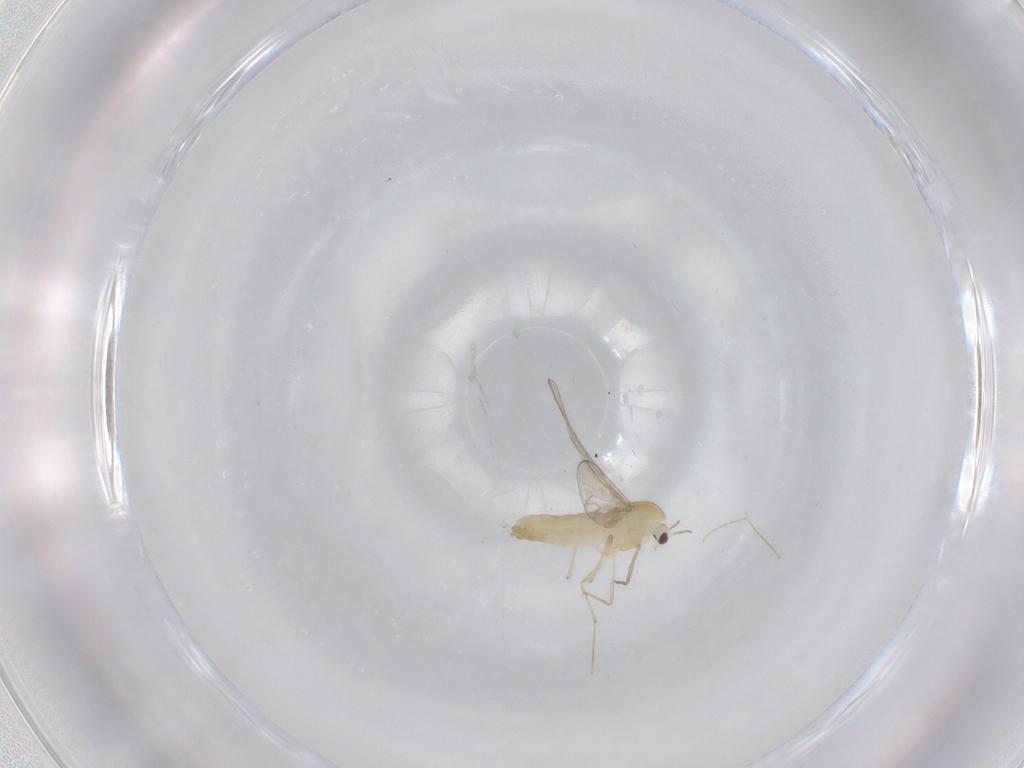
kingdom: Animalia
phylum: Arthropoda
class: Insecta
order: Diptera
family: Chironomidae
